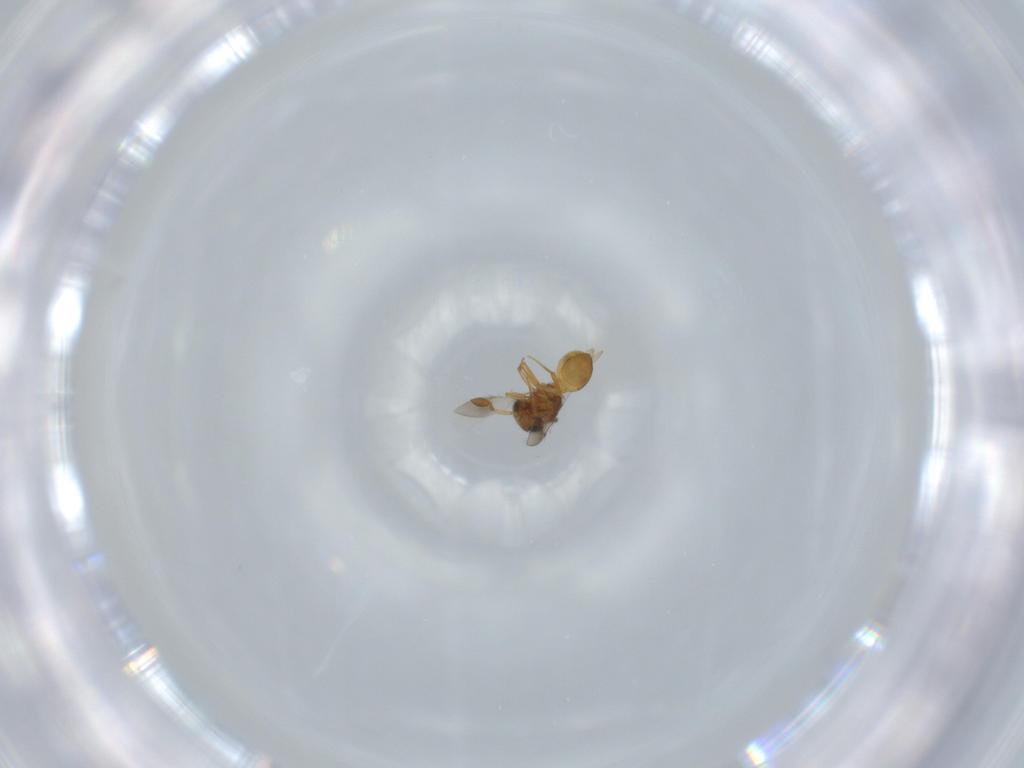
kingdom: Animalia
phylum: Arthropoda
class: Insecta
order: Hymenoptera
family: Scelionidae
